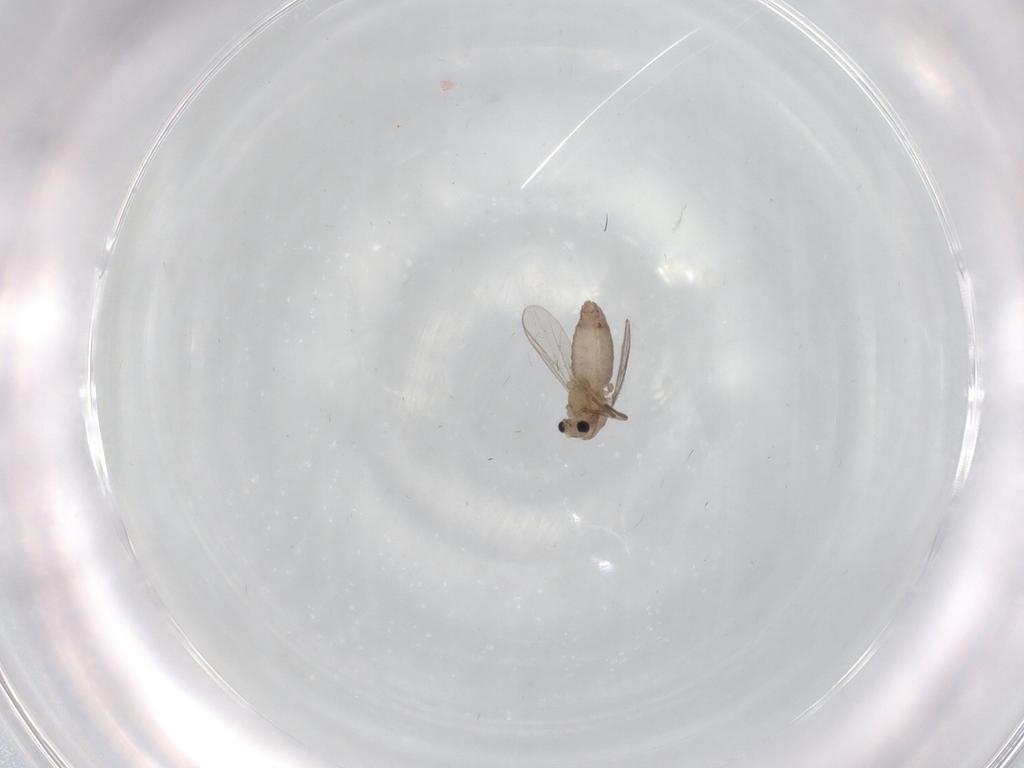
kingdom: Animalia
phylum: Arthropoda
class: Insecta
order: Diptera
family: Chironomidae
